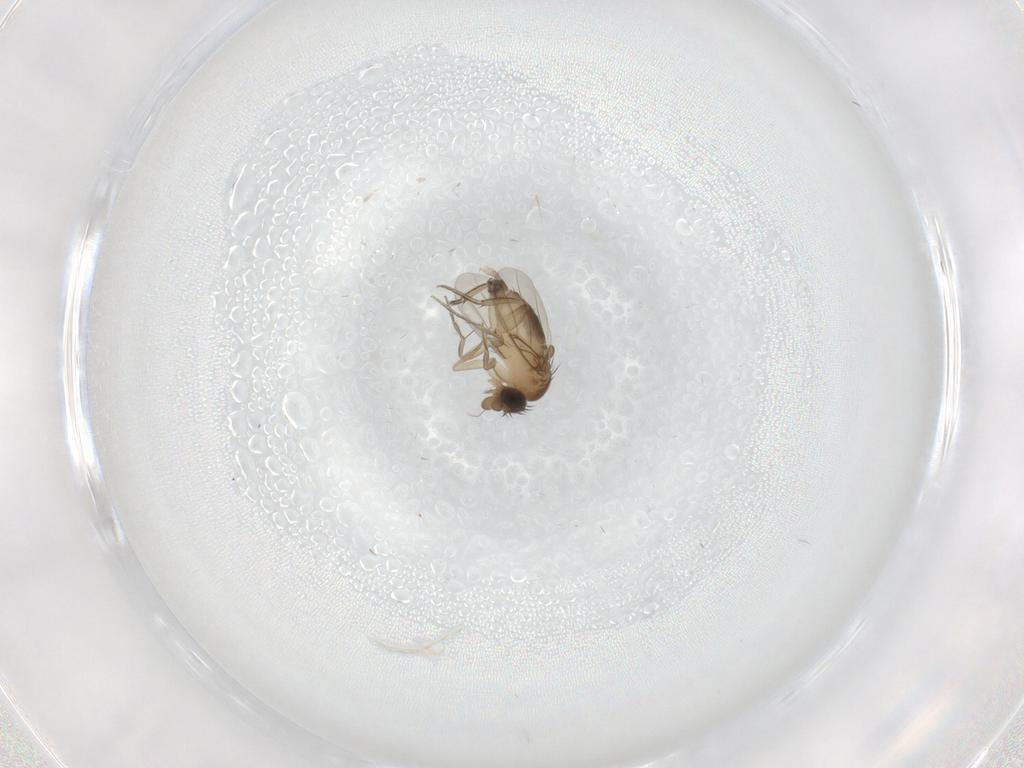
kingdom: Animalia
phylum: Arthropoda
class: Insecta
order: Diptera
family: Phoridae
